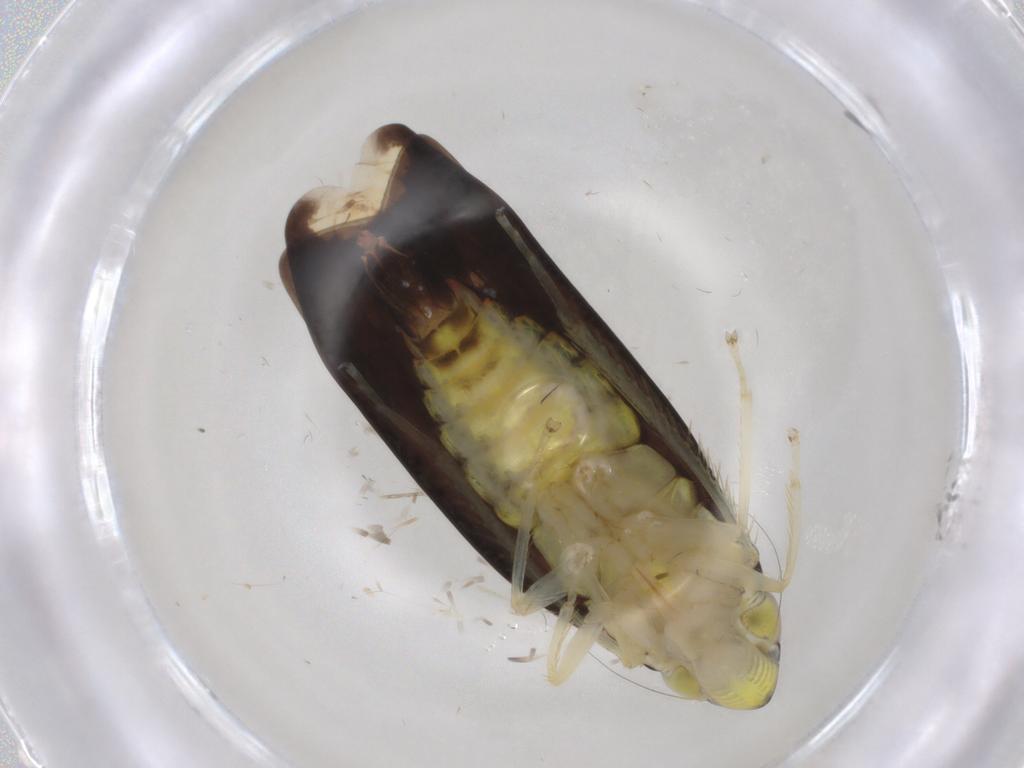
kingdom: Animalia
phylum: Arthropoda
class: Insecta
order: Hemiptera
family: Cicadellidae
